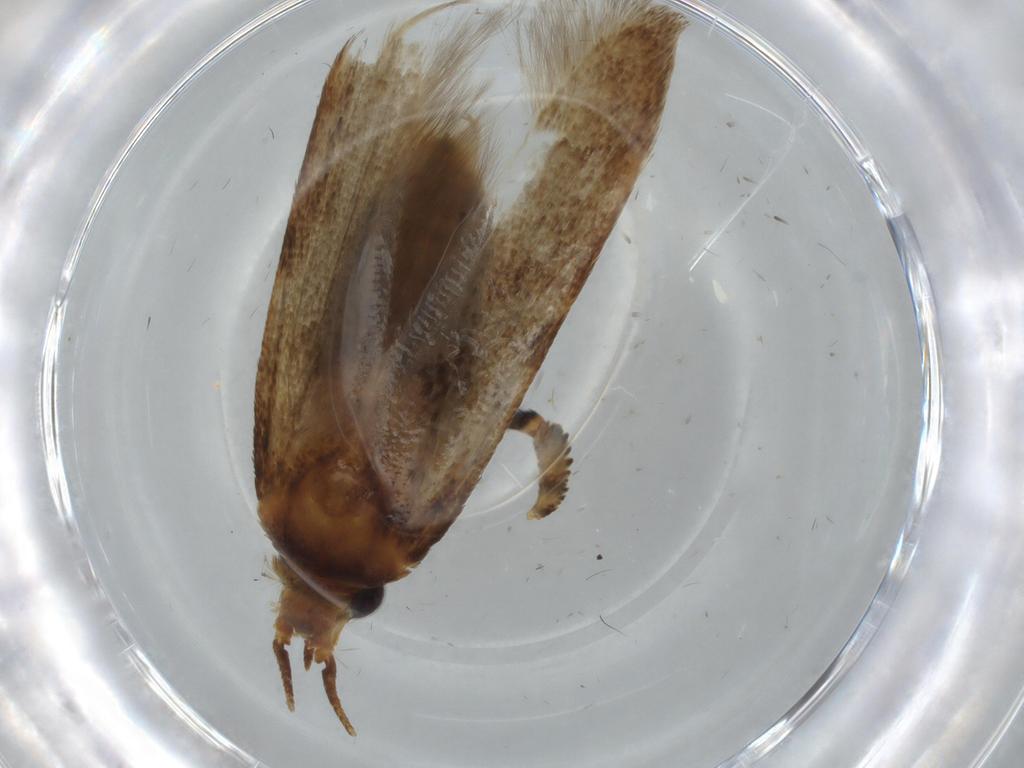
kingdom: Animalia
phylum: Arthropoda
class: Insecta
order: Lepidoptera
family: Blastobasidae
